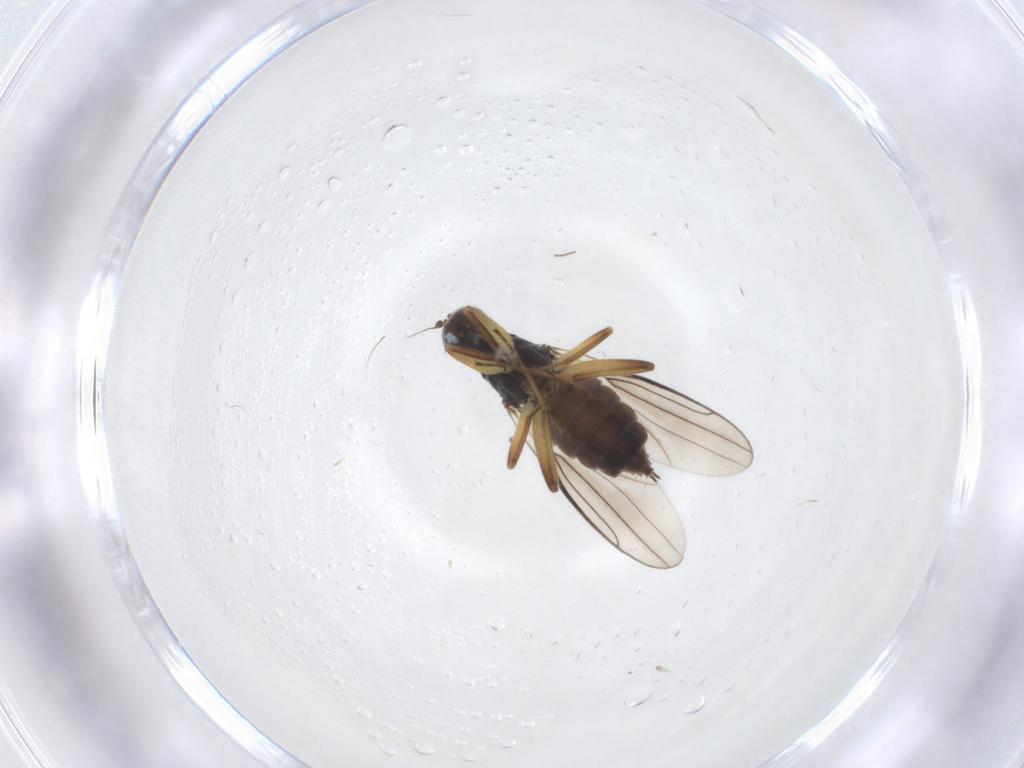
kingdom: Animalia
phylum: Arthropoda
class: Insecta
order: Diptera
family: Hybotidae
